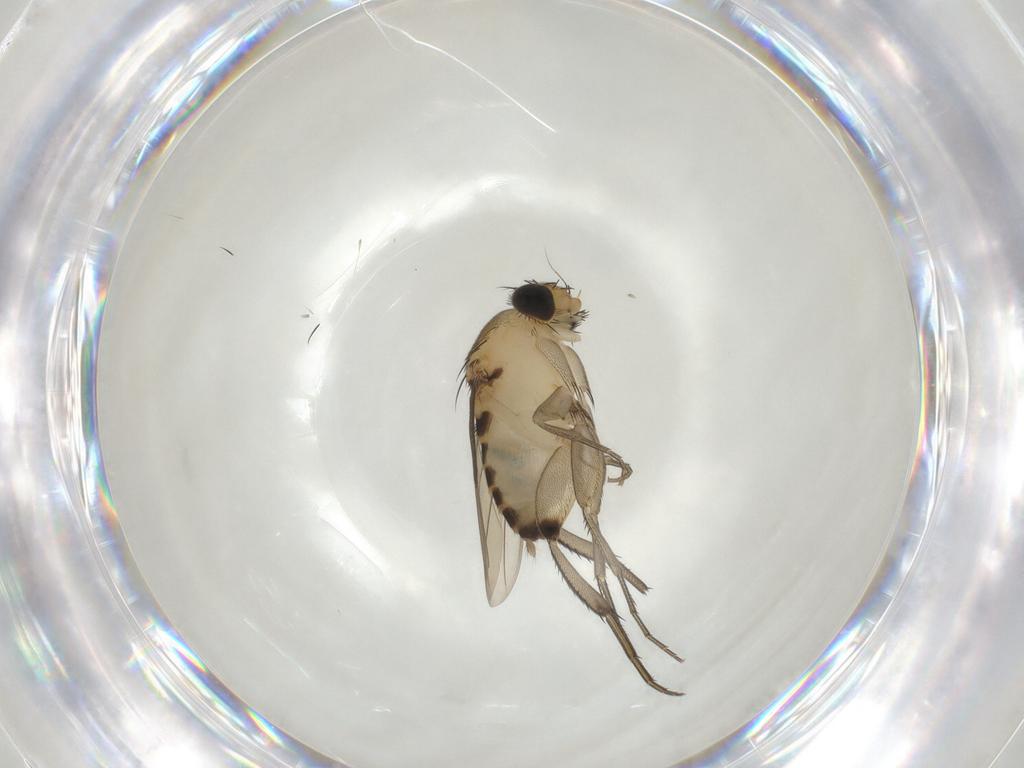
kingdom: Animalia
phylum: Arthropoda
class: Insecta
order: Diptera
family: Phoridae
